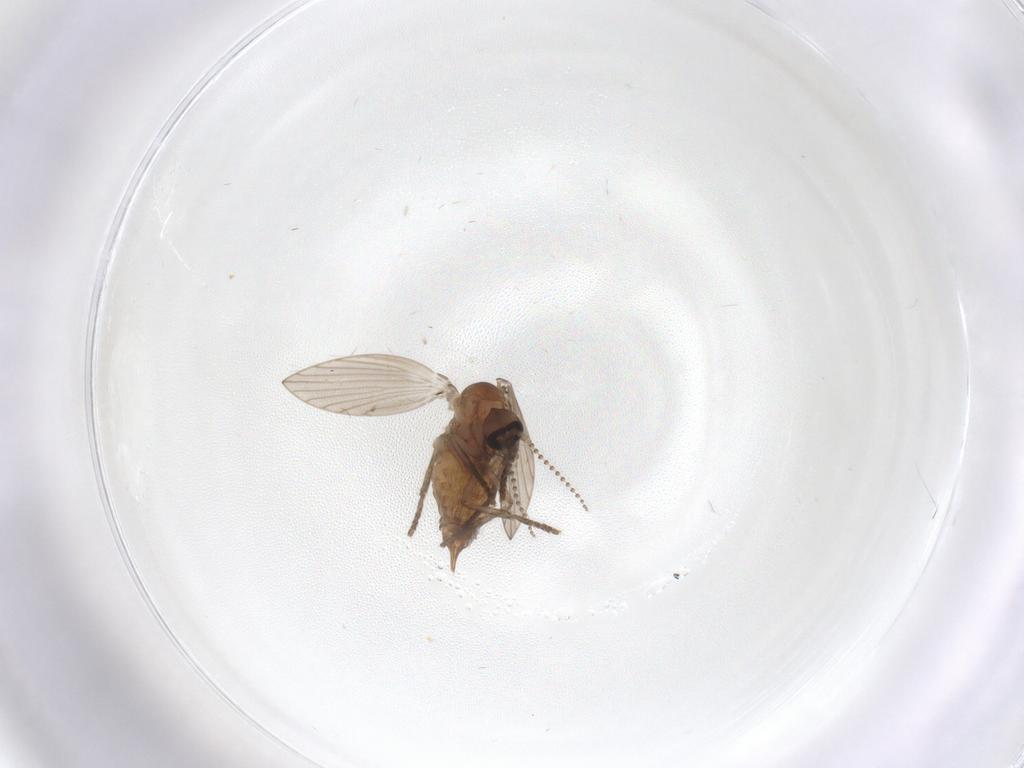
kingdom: Animalia
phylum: Arthropoda
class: Insecta
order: Diptera
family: Psychodidae
